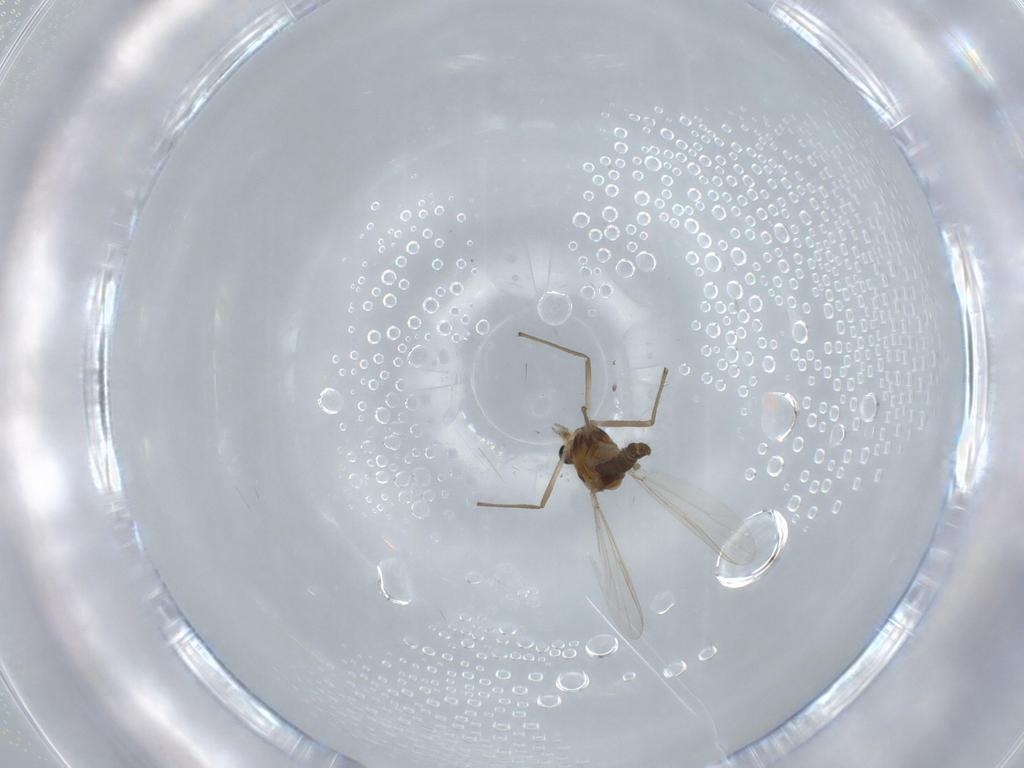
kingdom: Animalia
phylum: Arthropoda
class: Insecta
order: Diptera
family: Chironomidae
